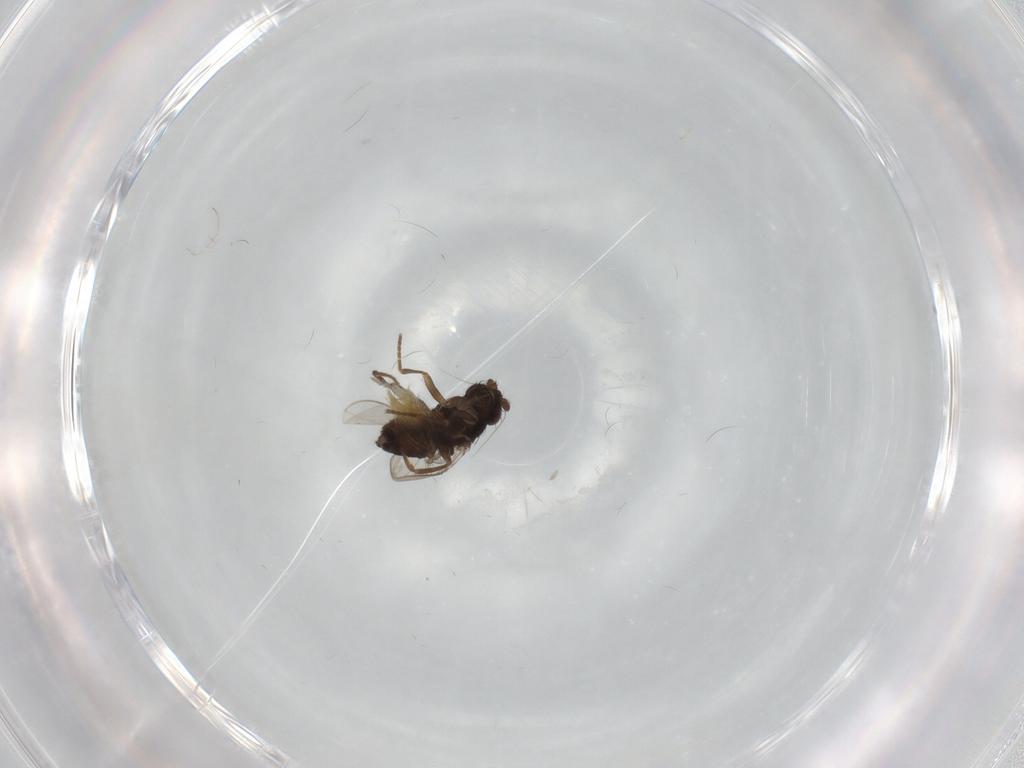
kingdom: Animalia
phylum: Arthropoda
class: Insecta
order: Diptera
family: Sphaeroceridae
